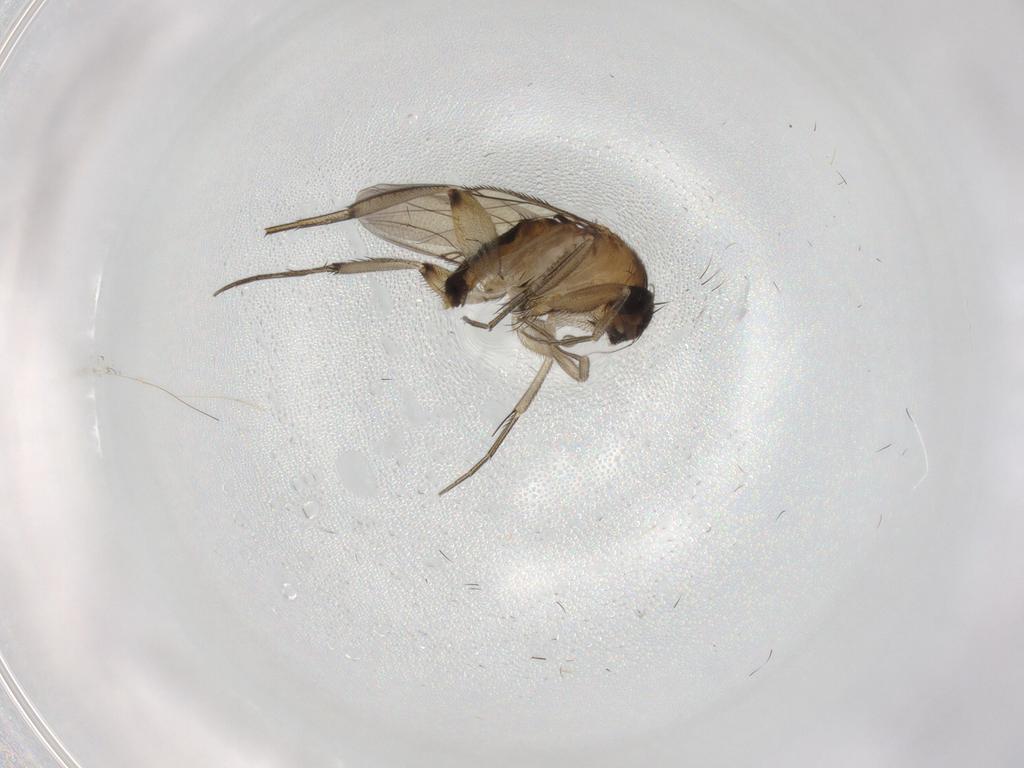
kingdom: Animalia
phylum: Arthropoda
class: Insecta
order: Diptera
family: Phoridae
